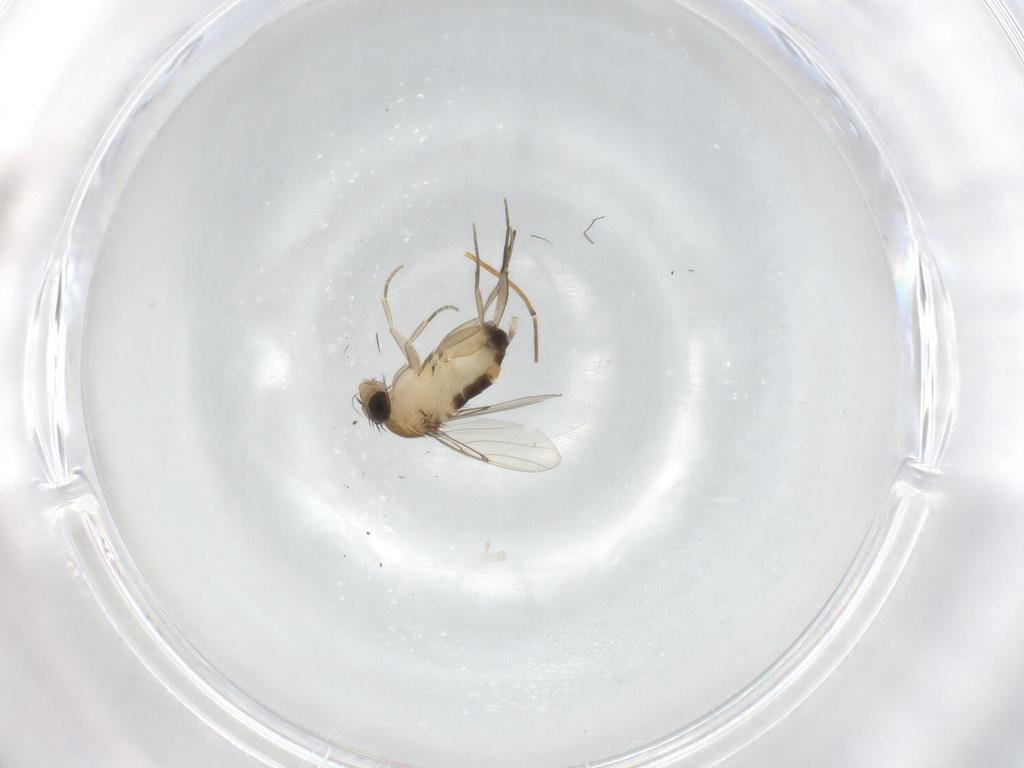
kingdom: Animalia
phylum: Arthropoda
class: Insecta
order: Diptera
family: Phoridae
